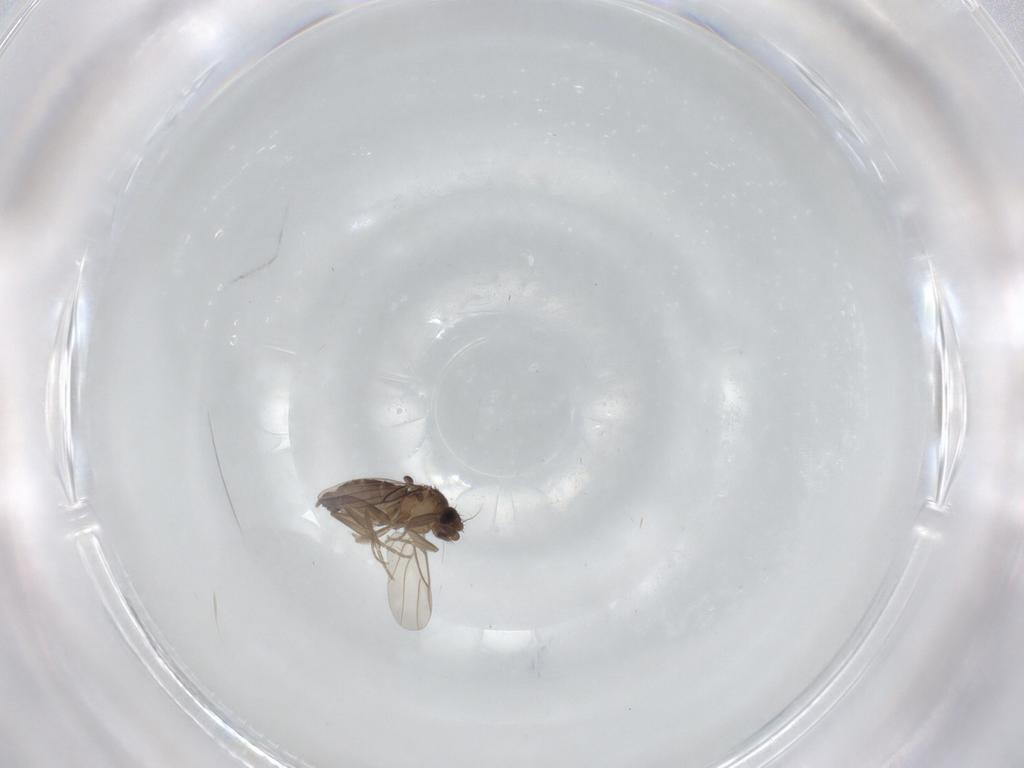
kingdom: Animalia
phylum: Arthropoda
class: Insecta
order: Diptera
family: Phoridae
